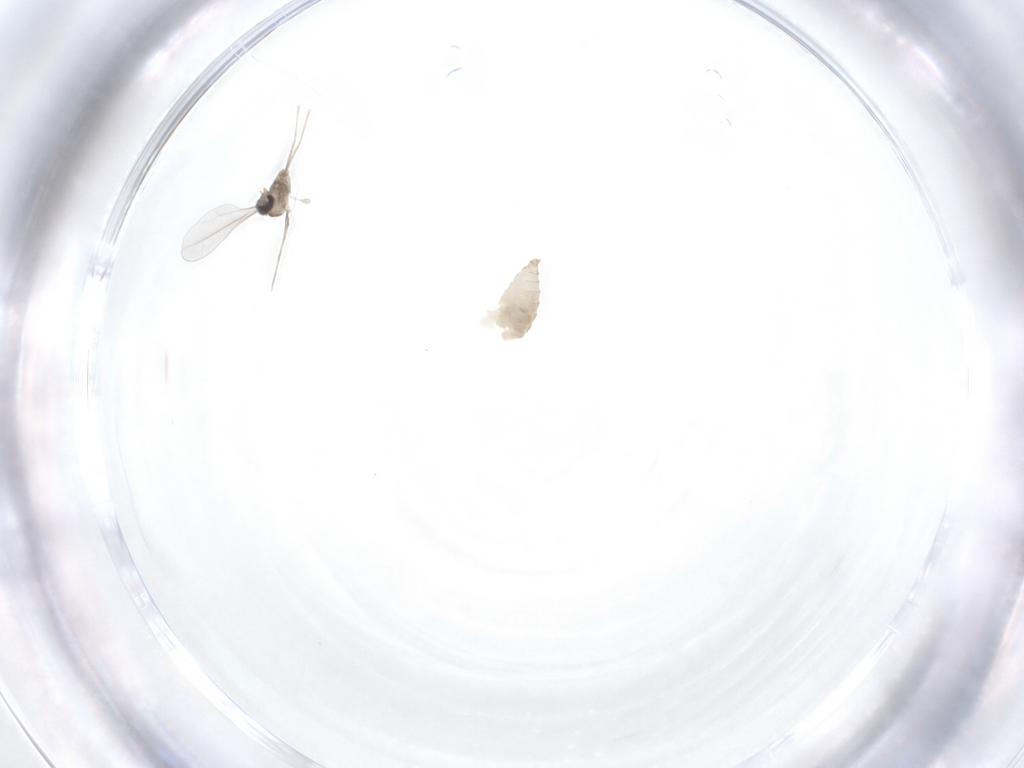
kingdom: Animalia
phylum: Arthropoda
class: Insecta
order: Diptera
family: Cecidomyiidae
